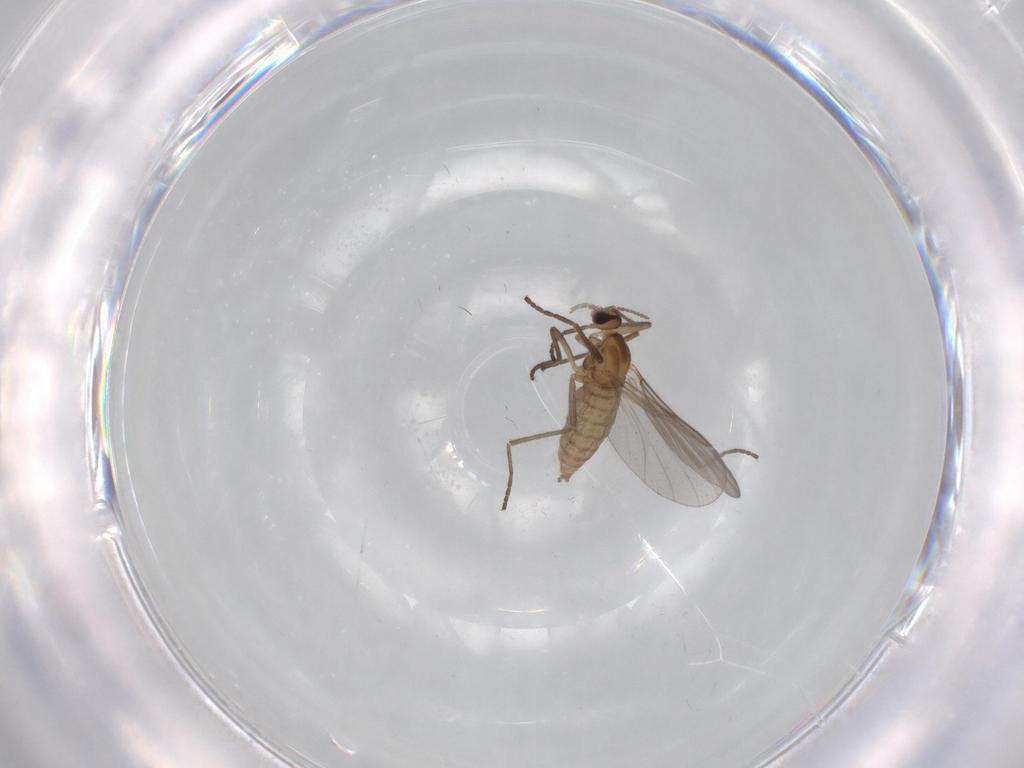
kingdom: Animalia
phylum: Arthropoda
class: Insecta
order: Diptera
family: Cecidomyiidae
